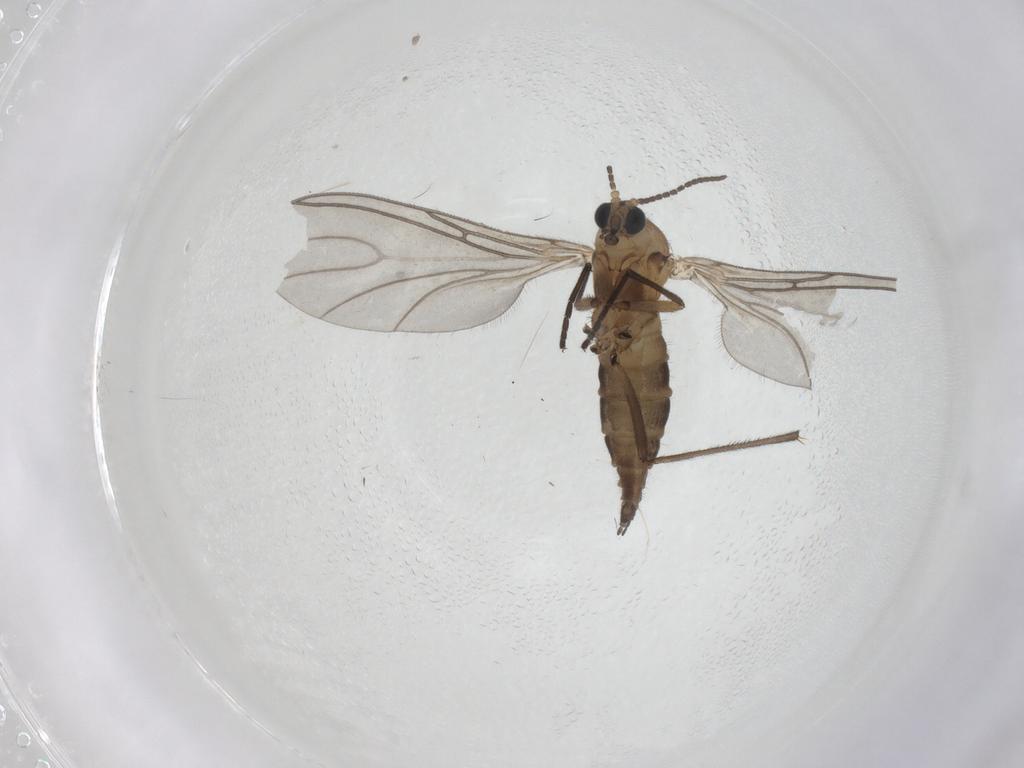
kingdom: Animalia
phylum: Arthropoda
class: Insecta
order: Diptera
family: Sciaridae
